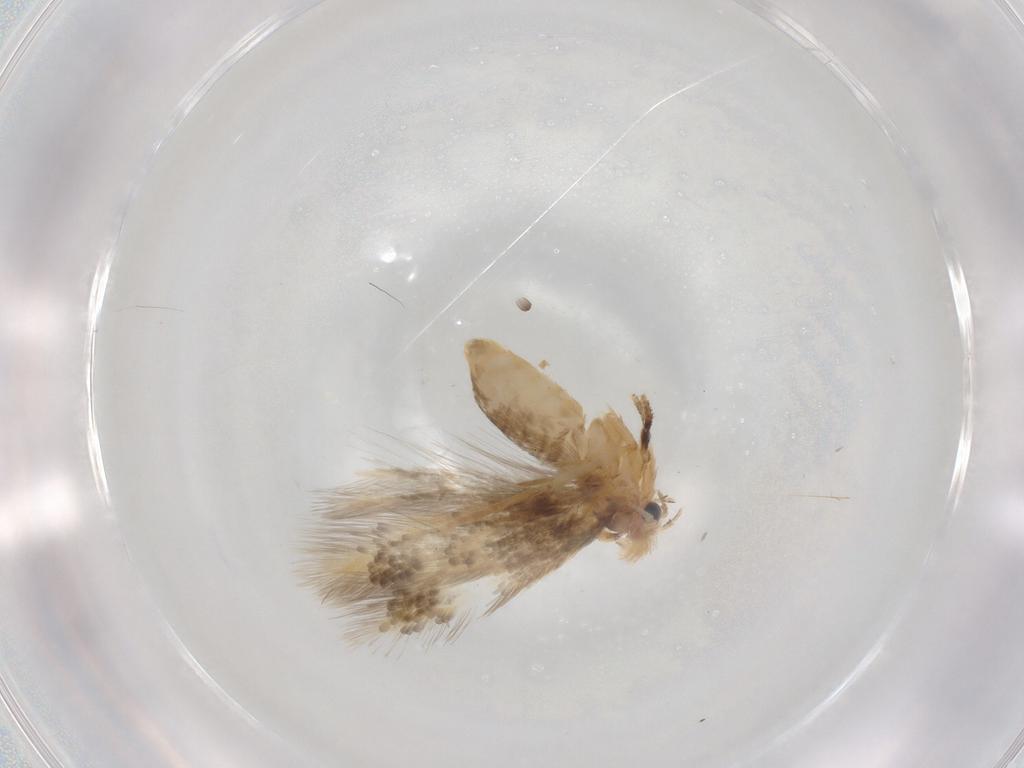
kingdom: Animalia
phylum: Arthropoda
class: Insecta
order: Lepidoptera
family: Nepticulidae
